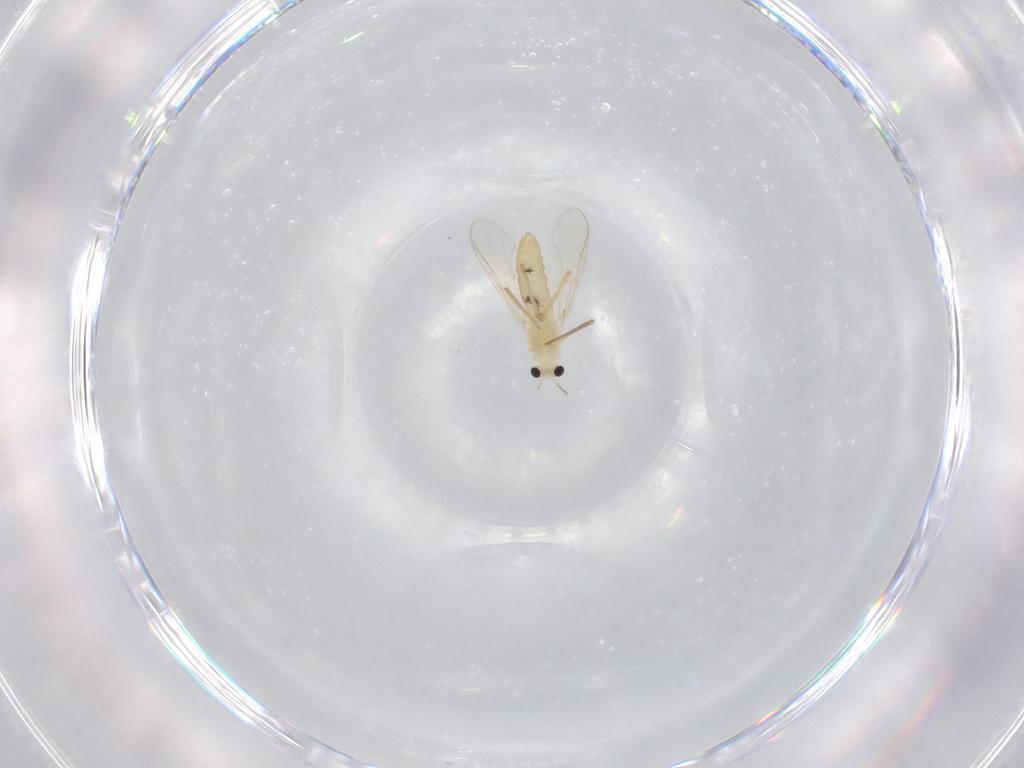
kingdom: Animalia
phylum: Arthropoda
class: Insecta
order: Diptera
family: Chironomidae
